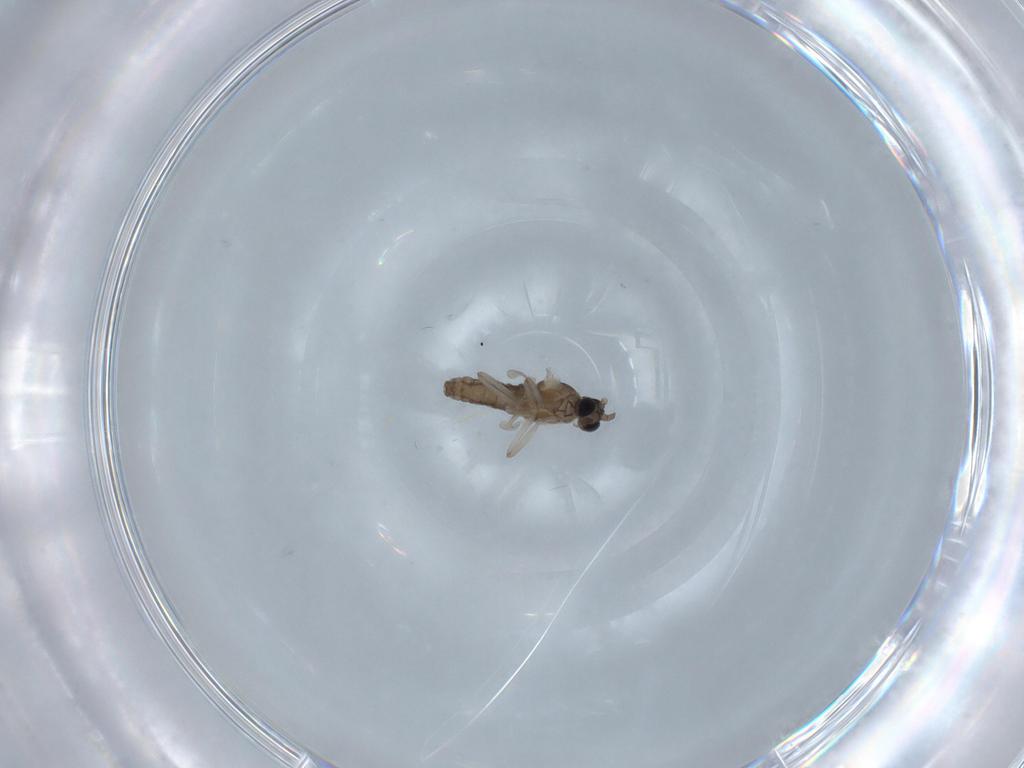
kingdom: Animalia
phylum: Arthropoda
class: Insecta
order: Diptera
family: Cecidomyiidae
